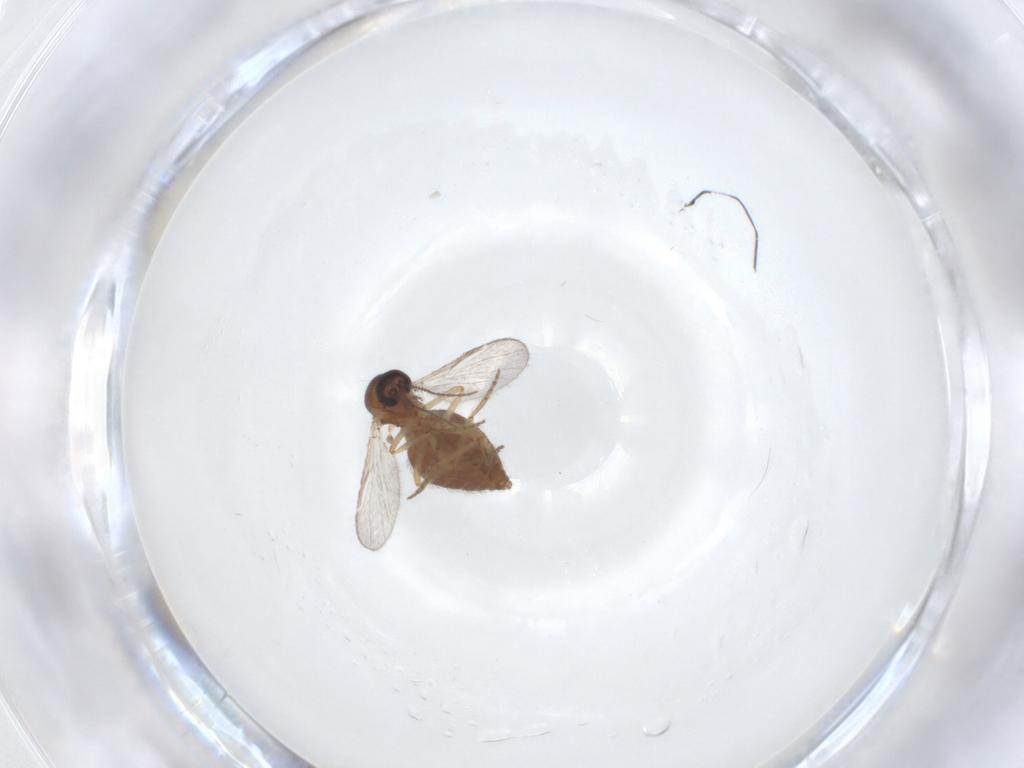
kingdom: Animalia
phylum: Arthropoda
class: Insecta
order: Diptera
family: Ceratopogonidae
